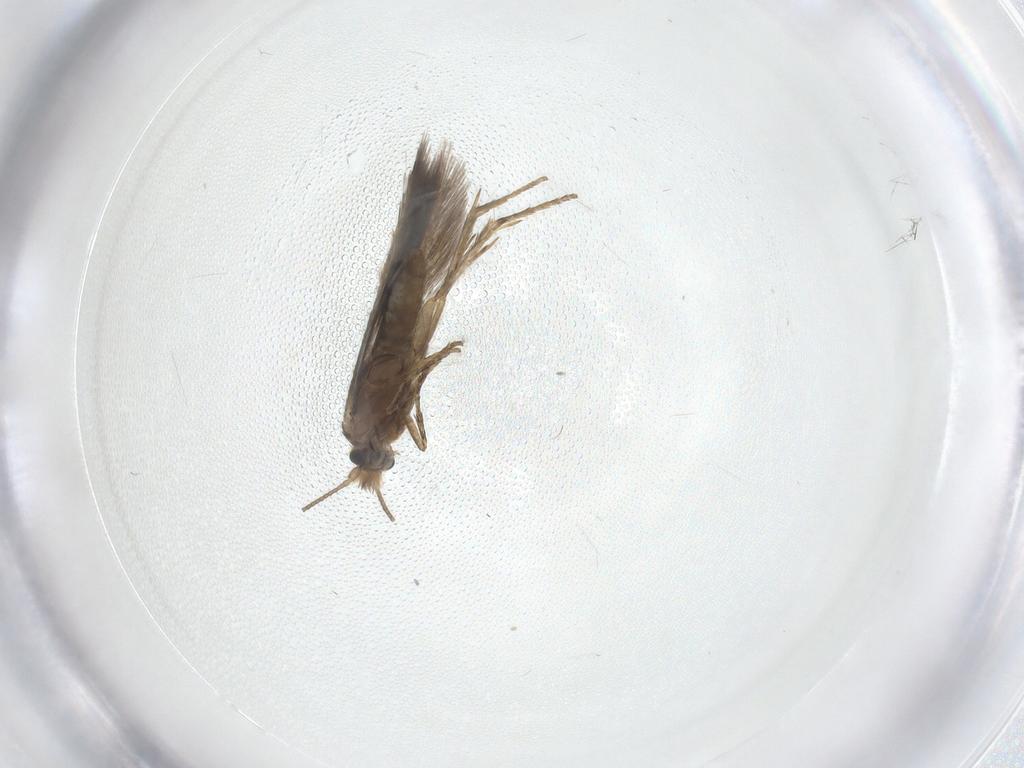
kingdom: Animalia
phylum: Arthropoda
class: Insecta
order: Lepidoptera
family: Nepticulidae
